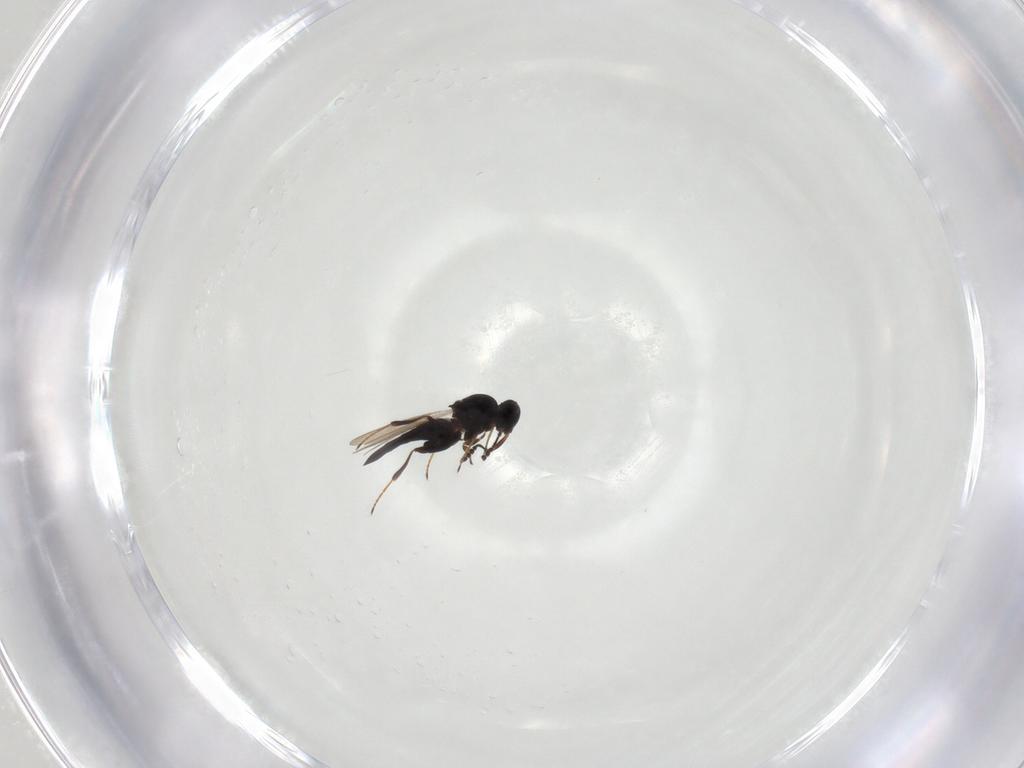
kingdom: Animalia
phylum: Arthropoda
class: Insecta
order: Hymenoptera
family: Platygastridae
